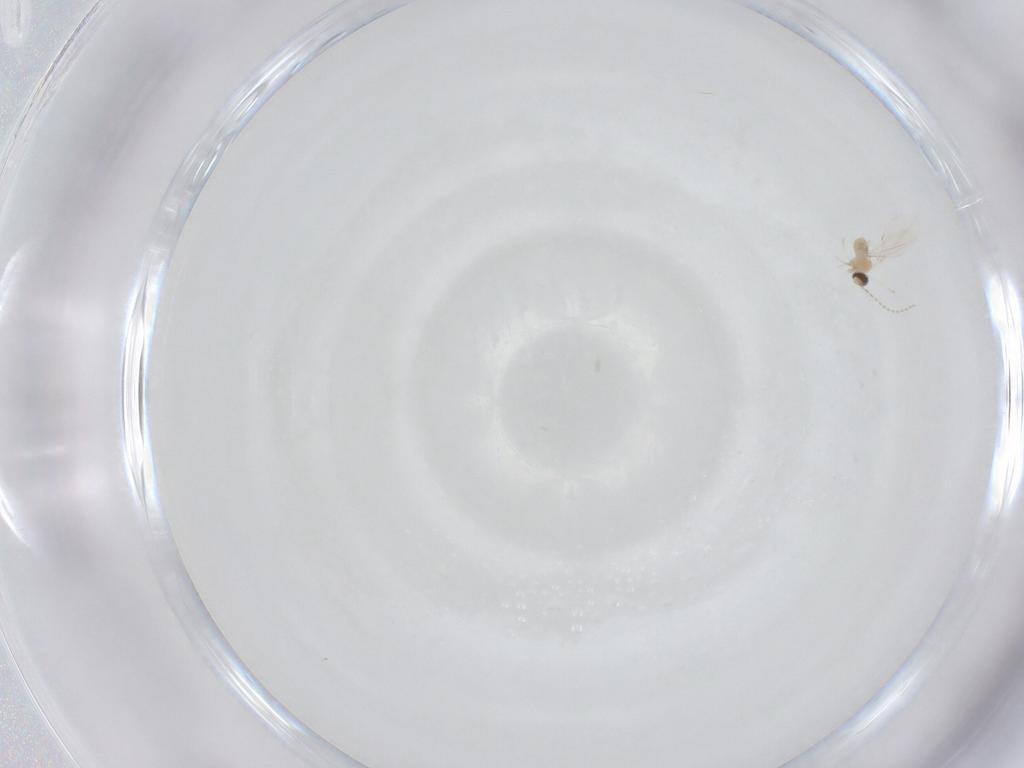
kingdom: Animalia
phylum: Arthropoda
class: Insecta
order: Diptera
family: Cecidomyiidae
